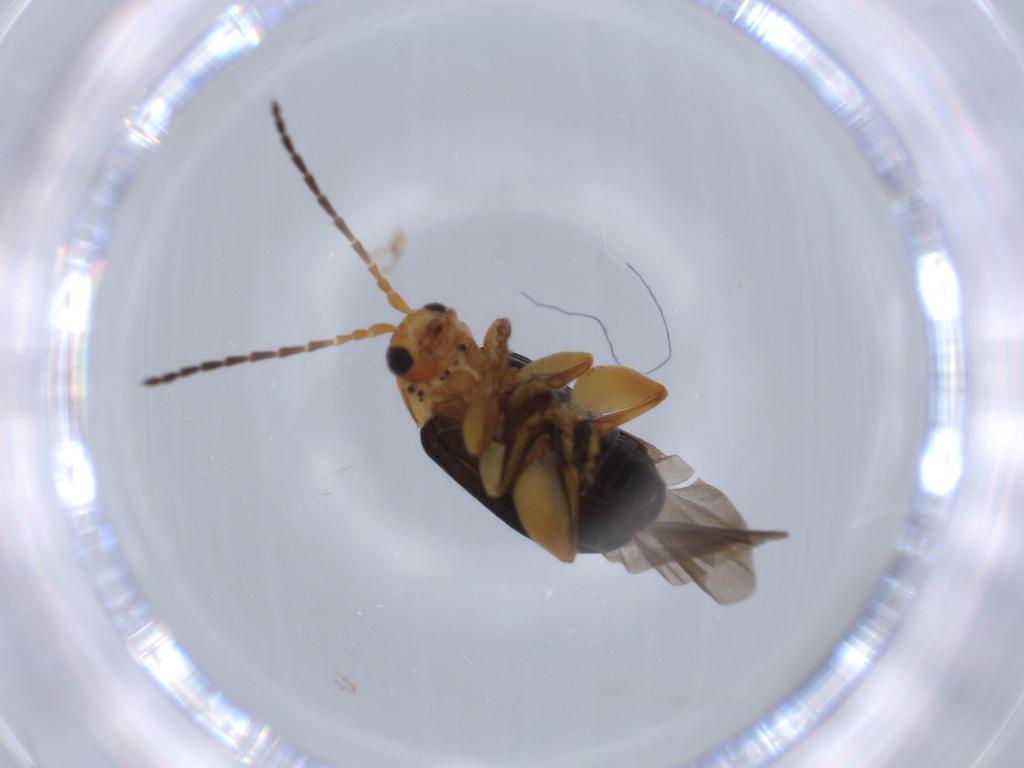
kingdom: Animalia
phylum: Arthropoda
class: Insecta
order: Coleoptera
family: Chrysomelidae
